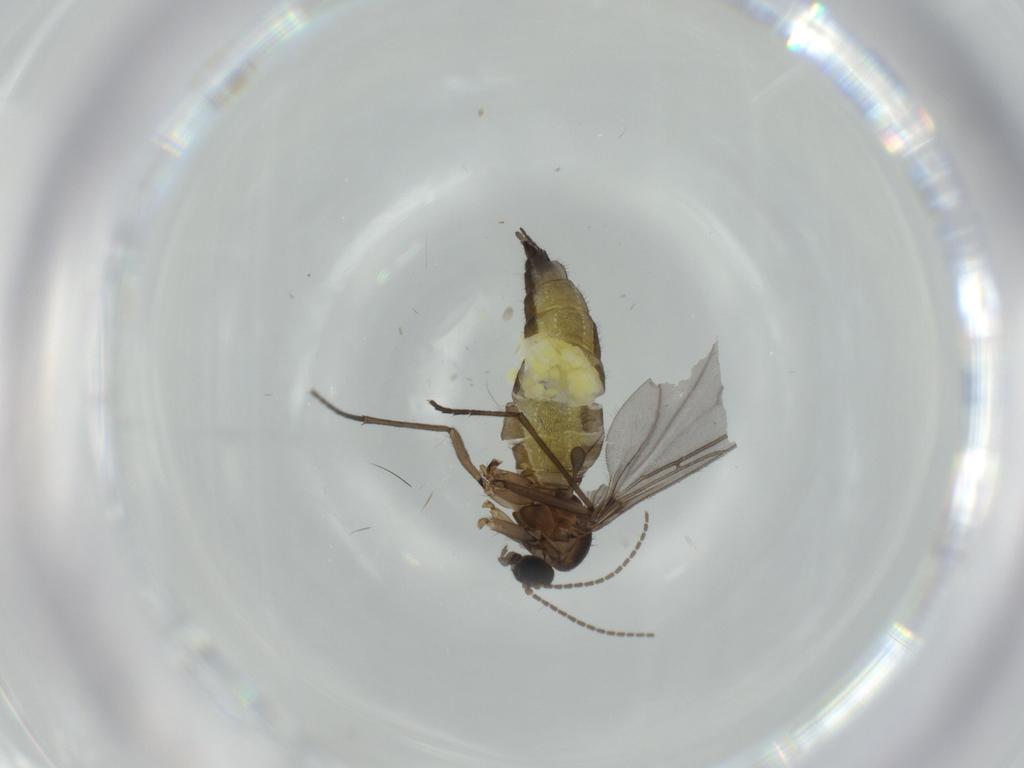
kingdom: Animalia
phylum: Arthropoda
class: Insecta
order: Diptera
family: Sciaridae
